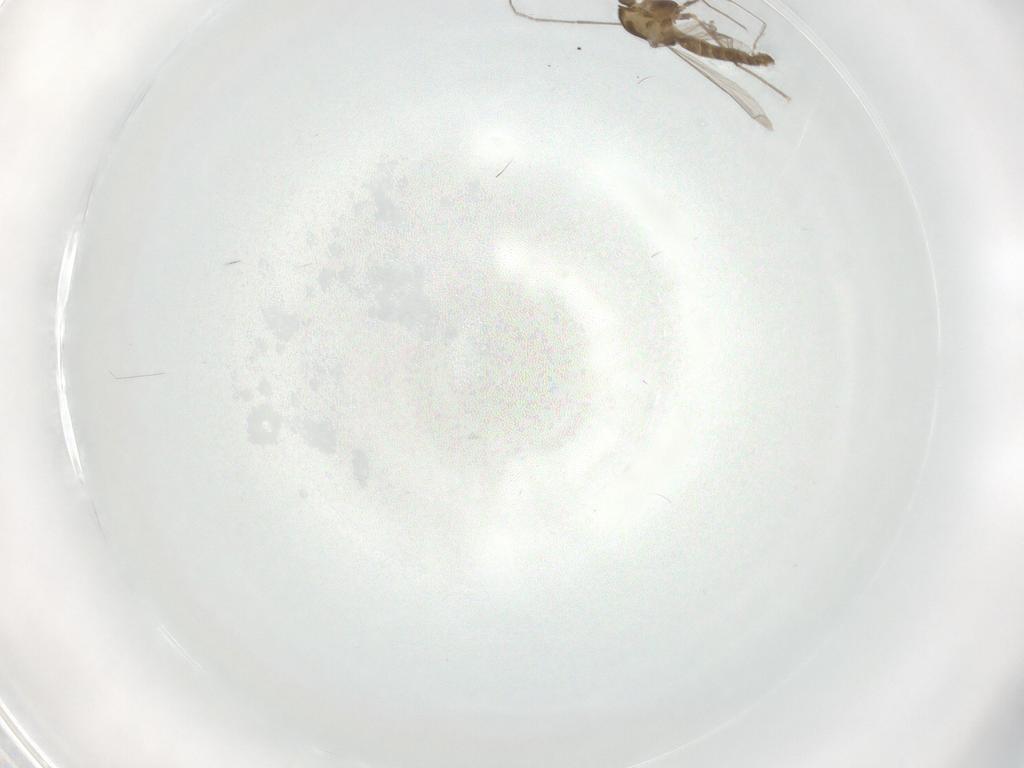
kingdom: Animalia
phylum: Arthropoda
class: Insecta
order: Diptera
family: Chironomidae
